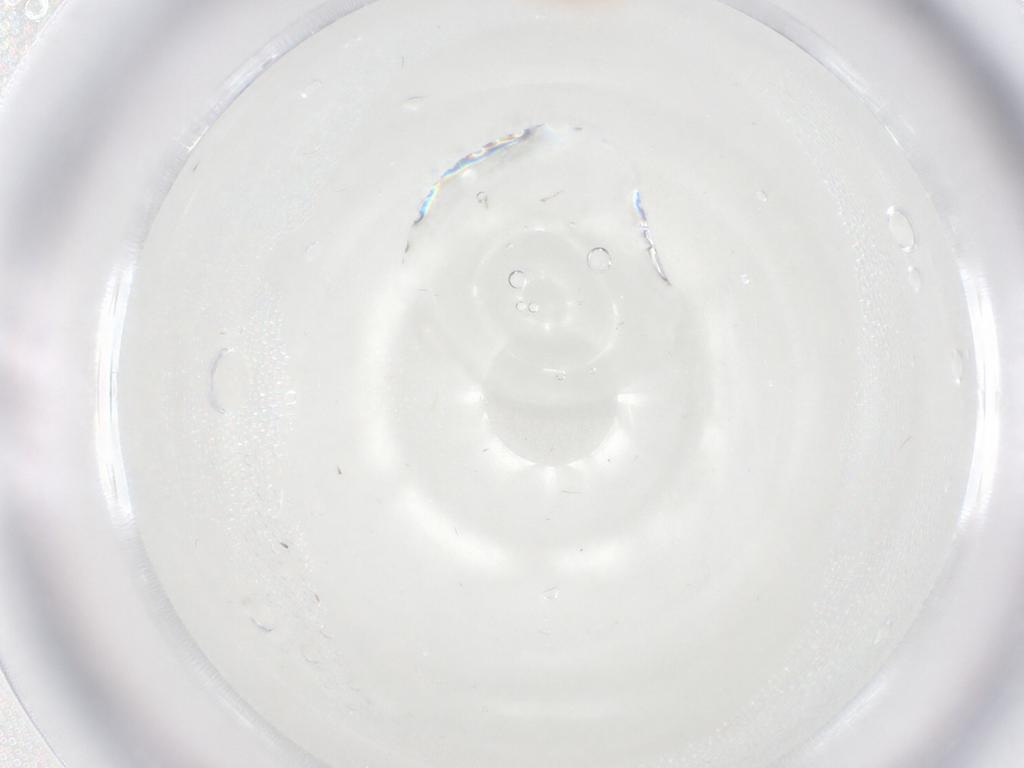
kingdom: Animalia
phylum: Arthropoda
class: Insecta
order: Diptera
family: Cecidomyiidae
